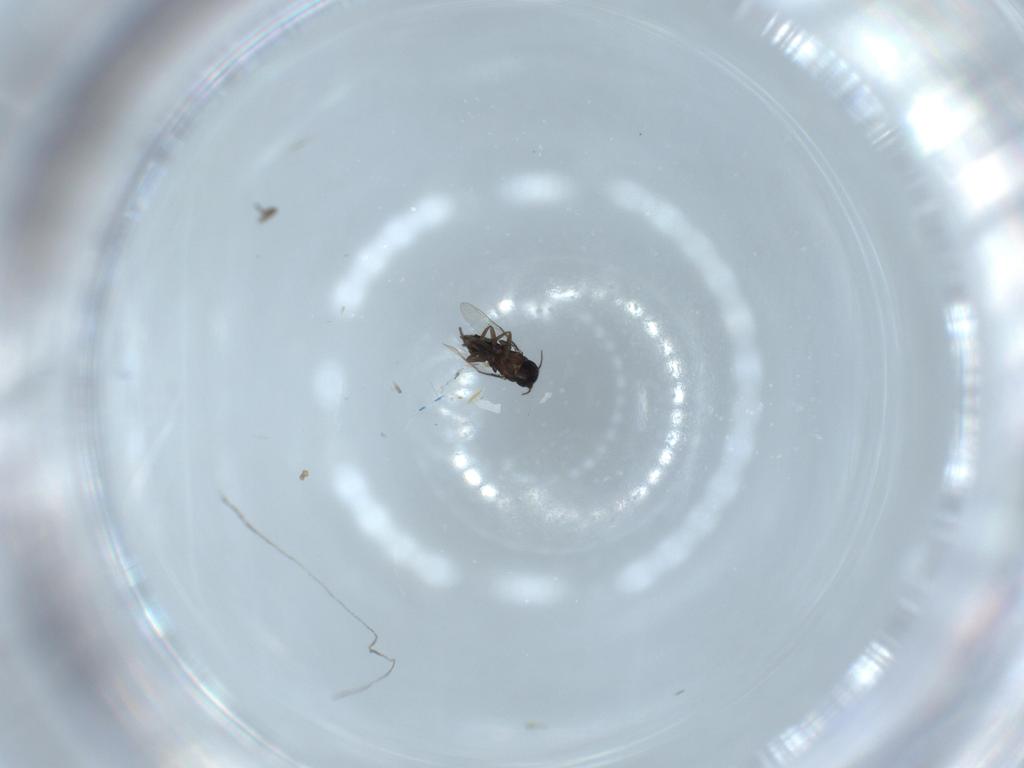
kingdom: Animalia
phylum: Arthropoda
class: Insecta
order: Diptera
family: Phoridae
